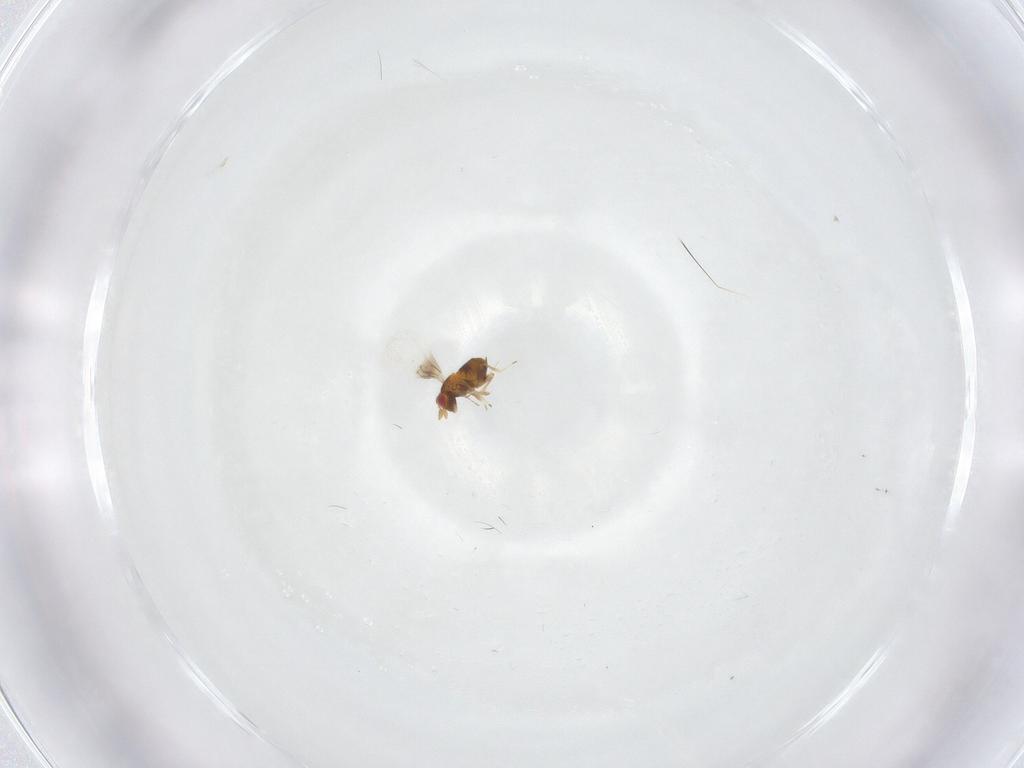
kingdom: Animalia
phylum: Arthropoda
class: Insecta
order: Hymenoptera
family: Trichogrammatidae
